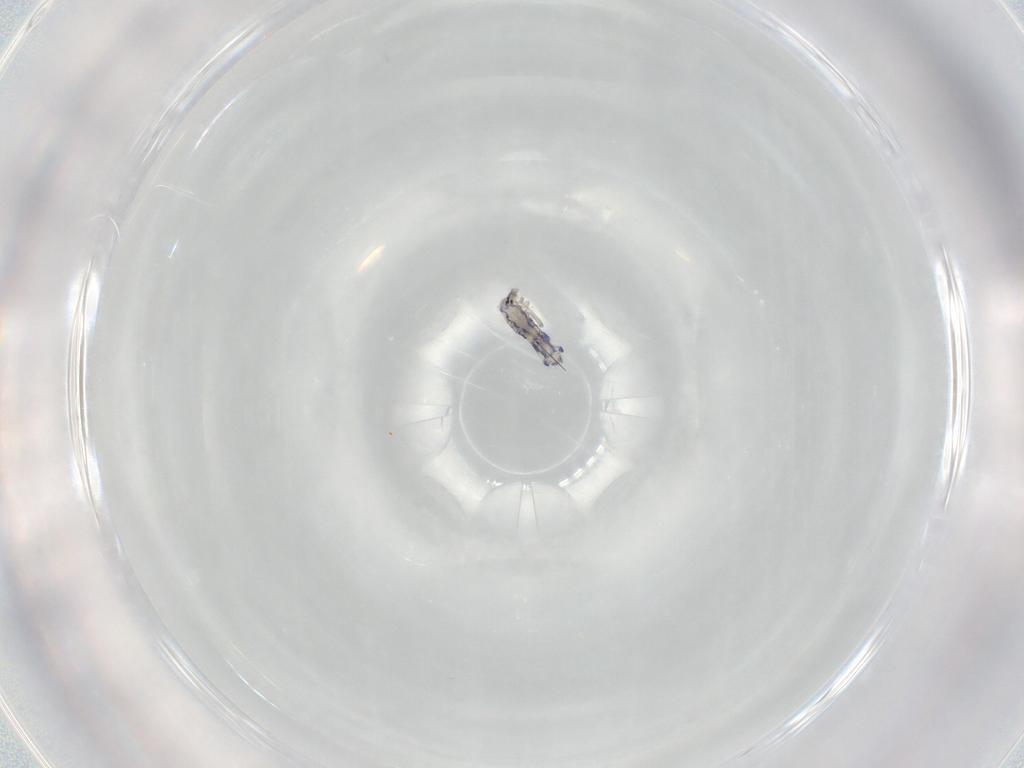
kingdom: Animalia
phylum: Arthropoda
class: Collembola
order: Entomobryomorpha
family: Entomobryidae
